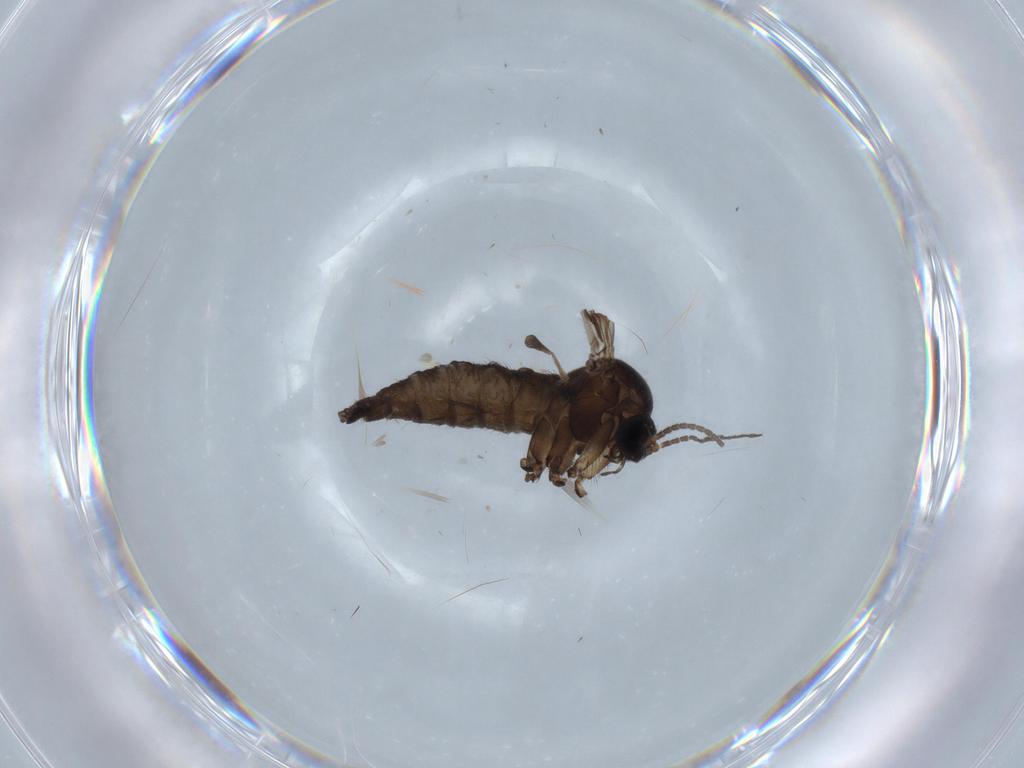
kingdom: Animalia
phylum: Arthropoda
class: Insecta
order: Diptera
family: Sciaridae
